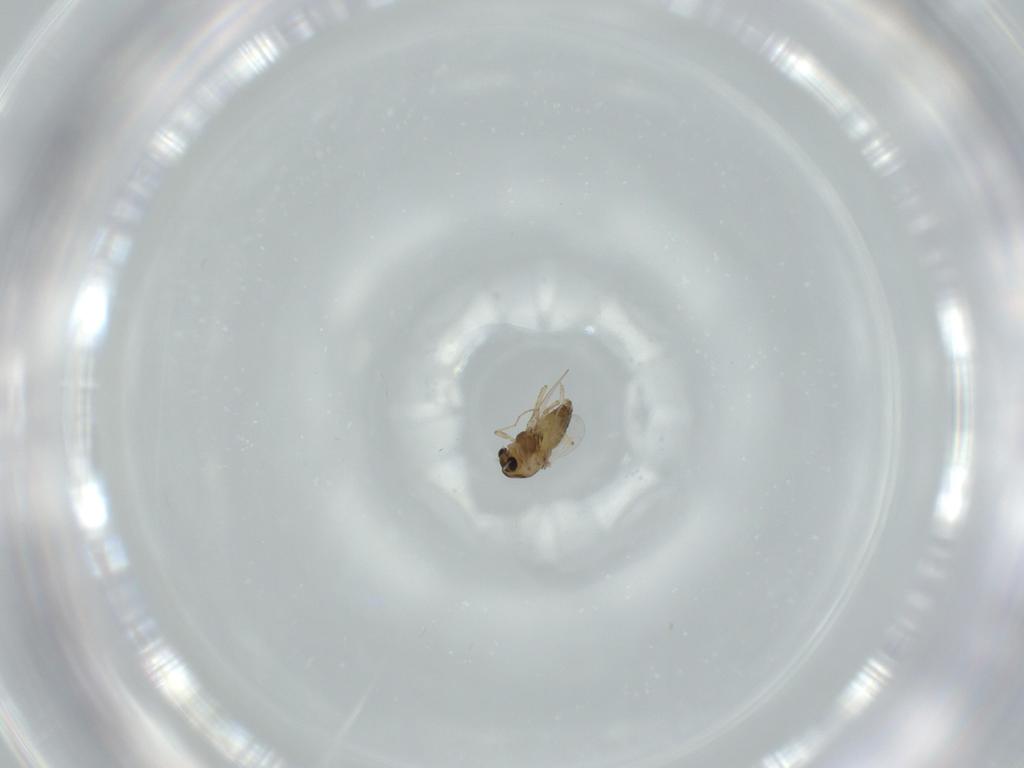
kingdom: Animalia
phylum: Arthropoda
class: Insecta
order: Diptera
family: Chironomidae
